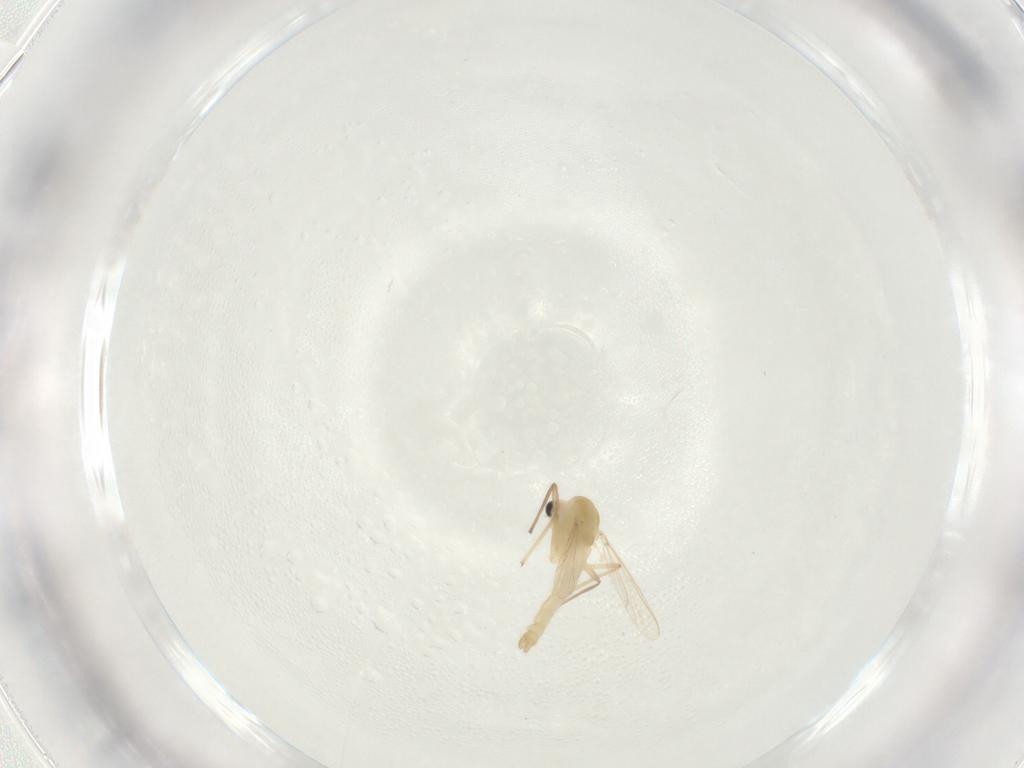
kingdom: Animalia
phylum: Arthropoda
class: Insecta
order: Diptera
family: Chironomidae
